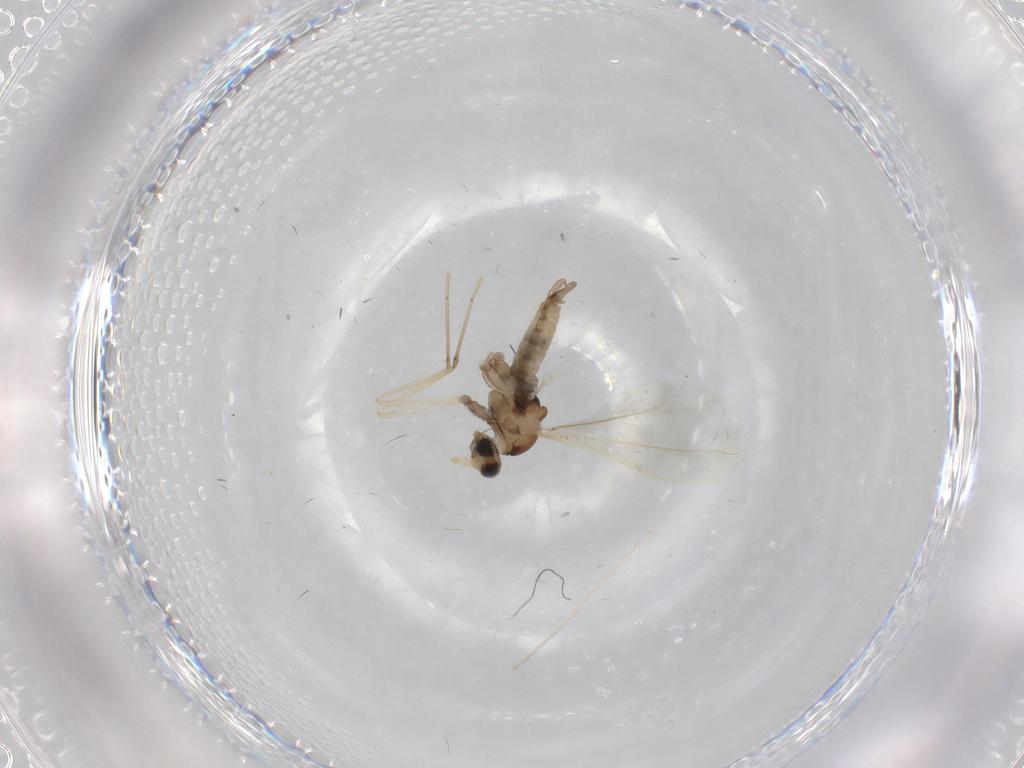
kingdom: Animalia
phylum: Arthropoda
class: Insecta
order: Diptera
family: Cecidomyiidae
